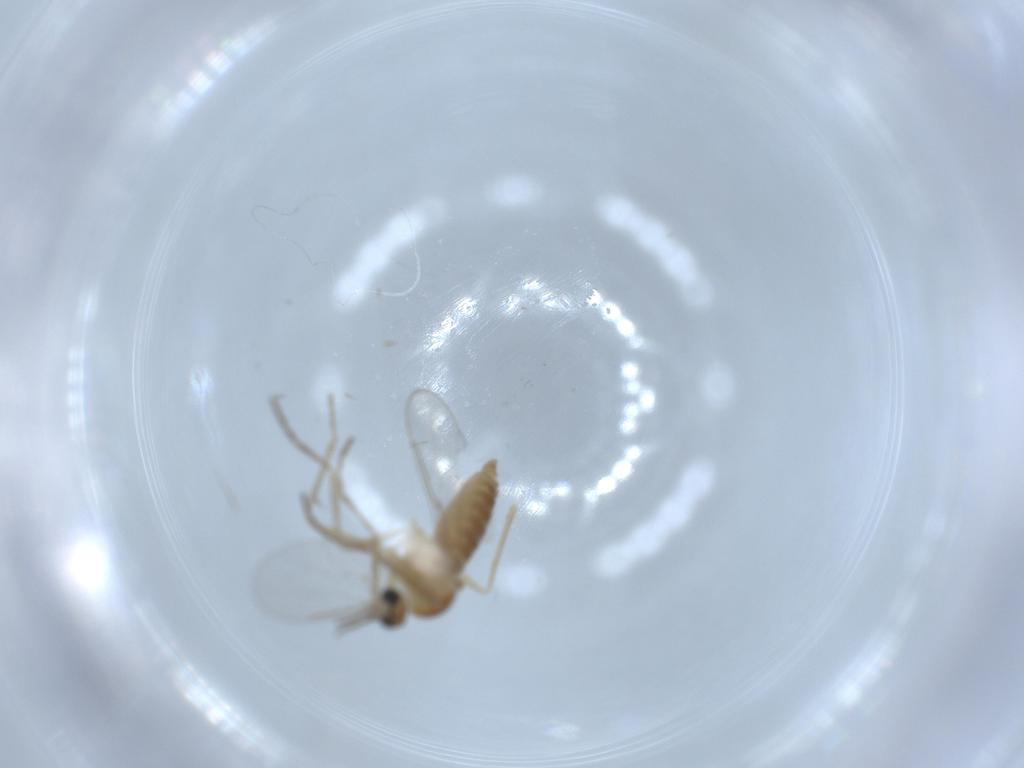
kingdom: Animalia
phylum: Arthropoda
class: Insecta
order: Diptera
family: Cecidomyiidae
